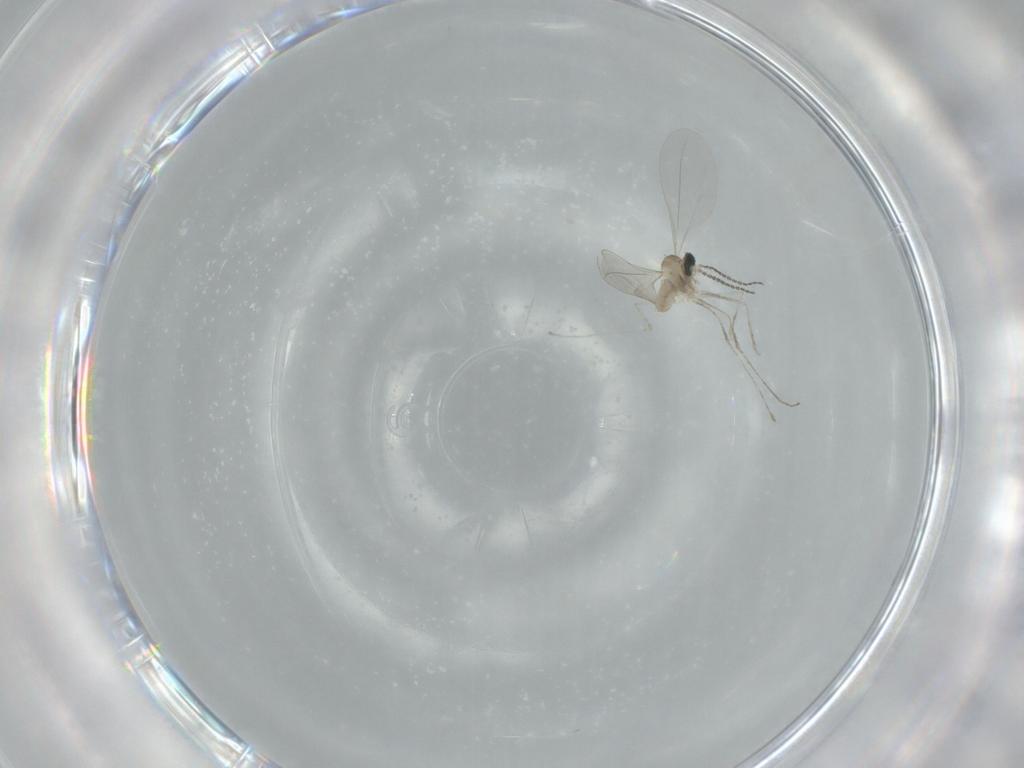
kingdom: Animalia
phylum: Arthropoda
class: Insecta
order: Diptera
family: Cecidomyiidae
